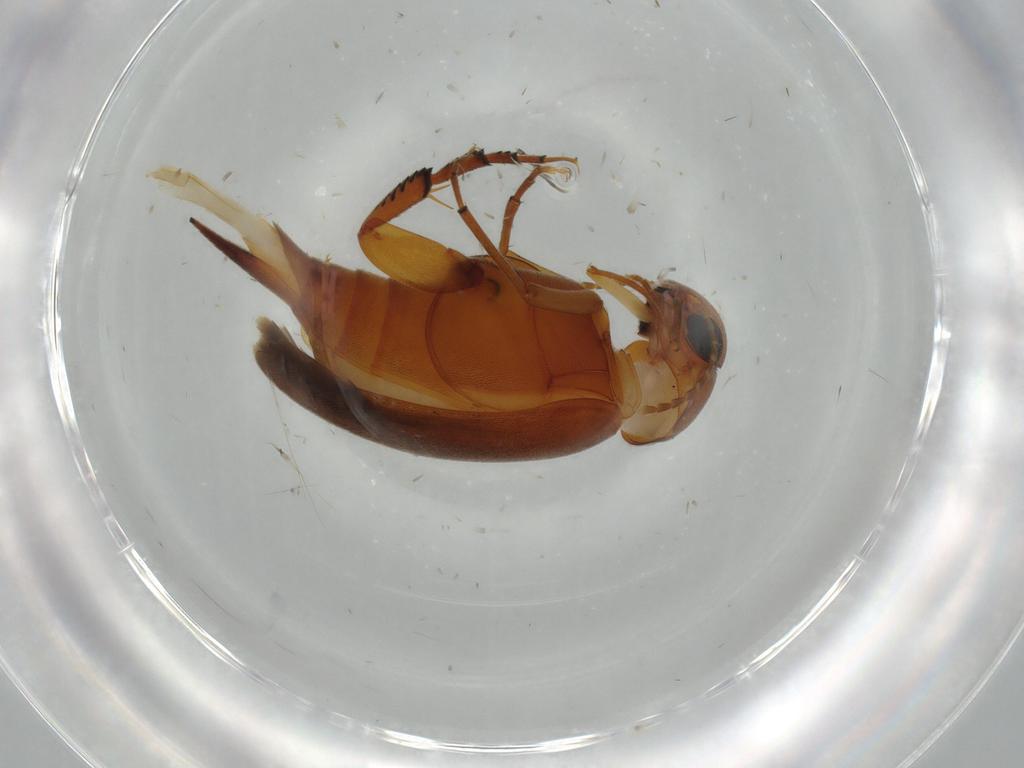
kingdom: Animalia
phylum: Arthropoda
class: Insecta
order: Coleoptera
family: Mordellidae
